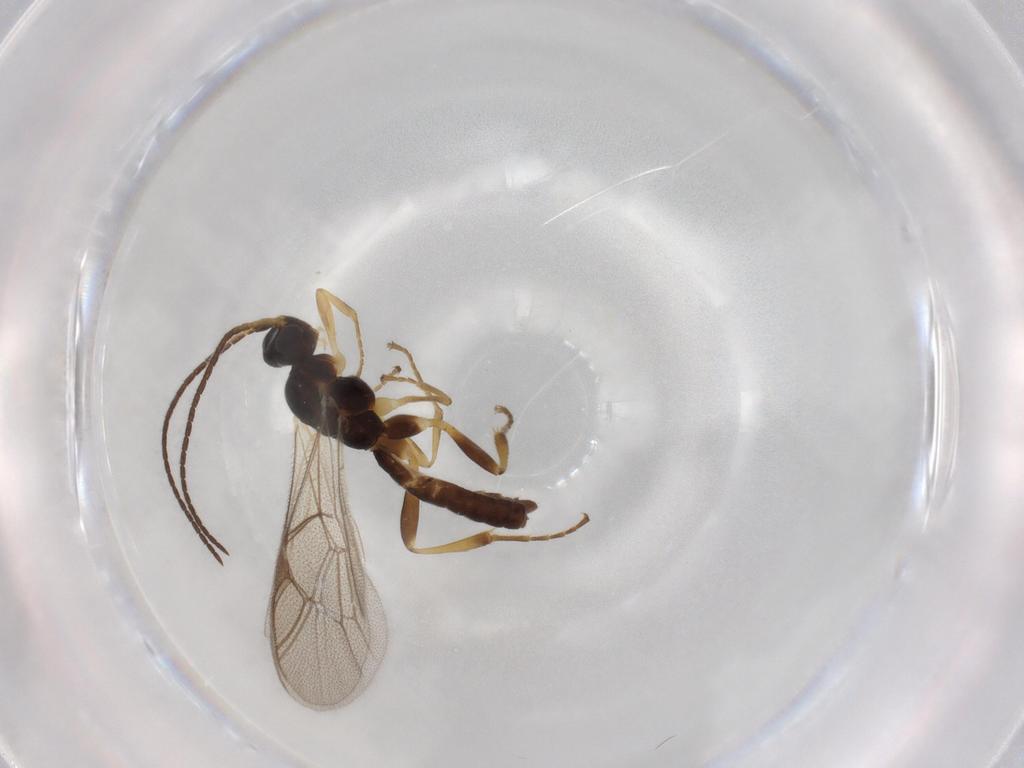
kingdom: Animalia
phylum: Arthropoda
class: Insecta
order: Hymenoptera
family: Ichneumonidae
